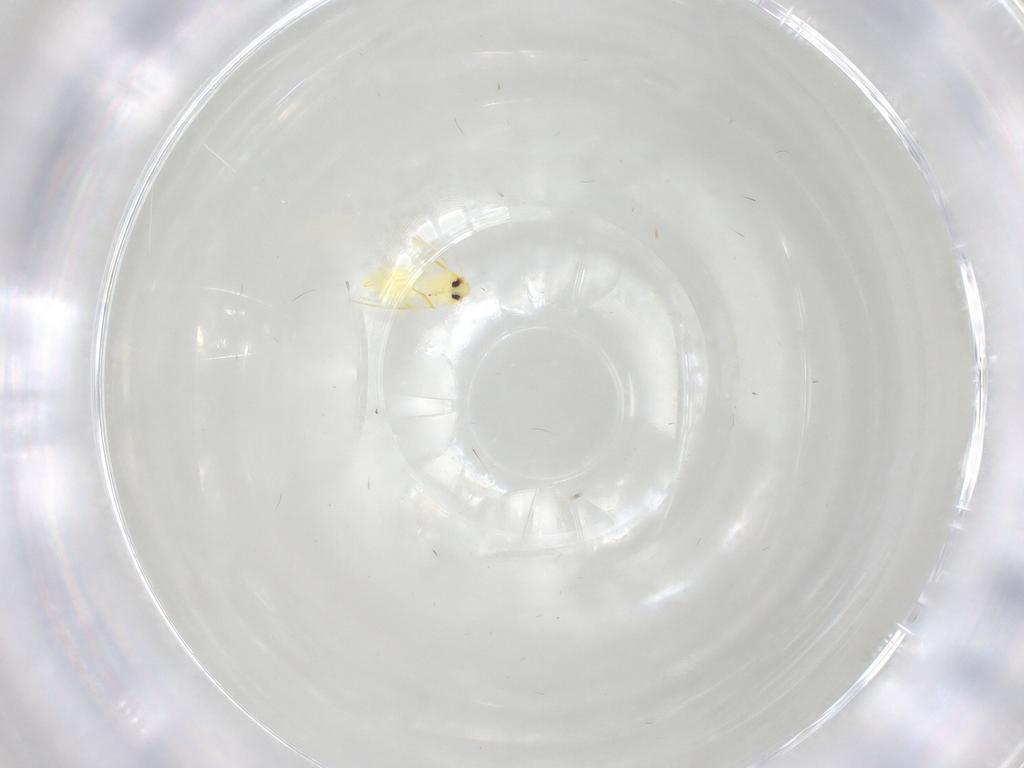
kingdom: Animalia
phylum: Arthropoda
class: Insecta
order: Hemiptera
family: Aleyrodidae
